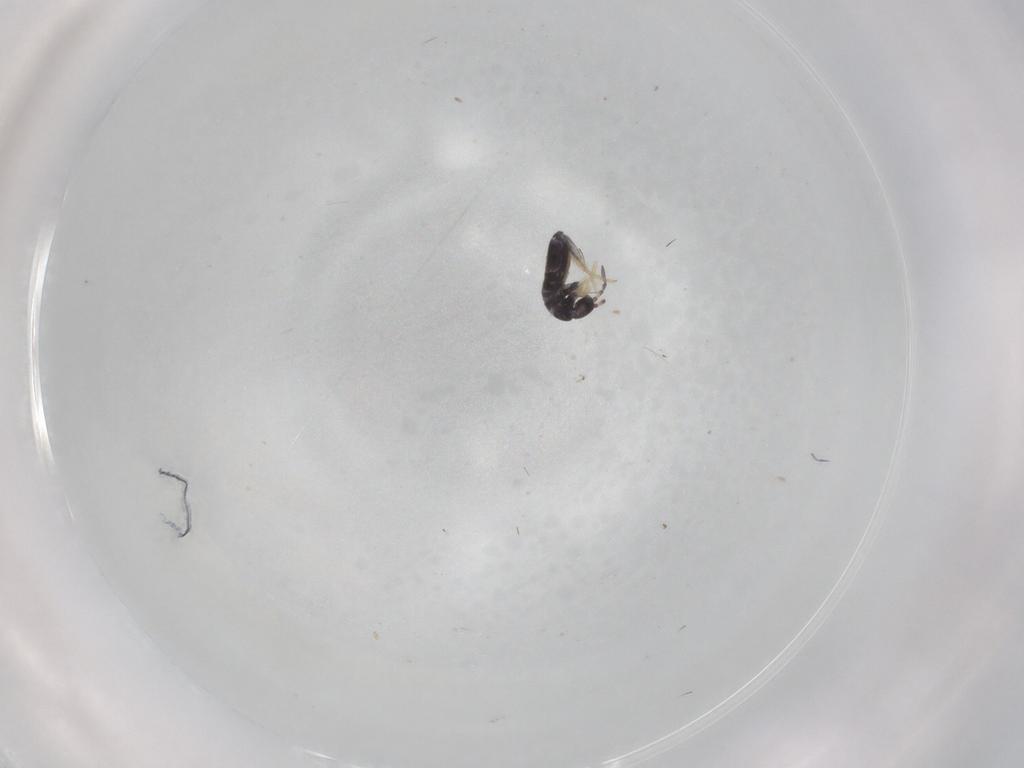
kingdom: Animalia
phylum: Arthropoda
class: Collembola
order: Entomobryomorpha
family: Entomobryidae
